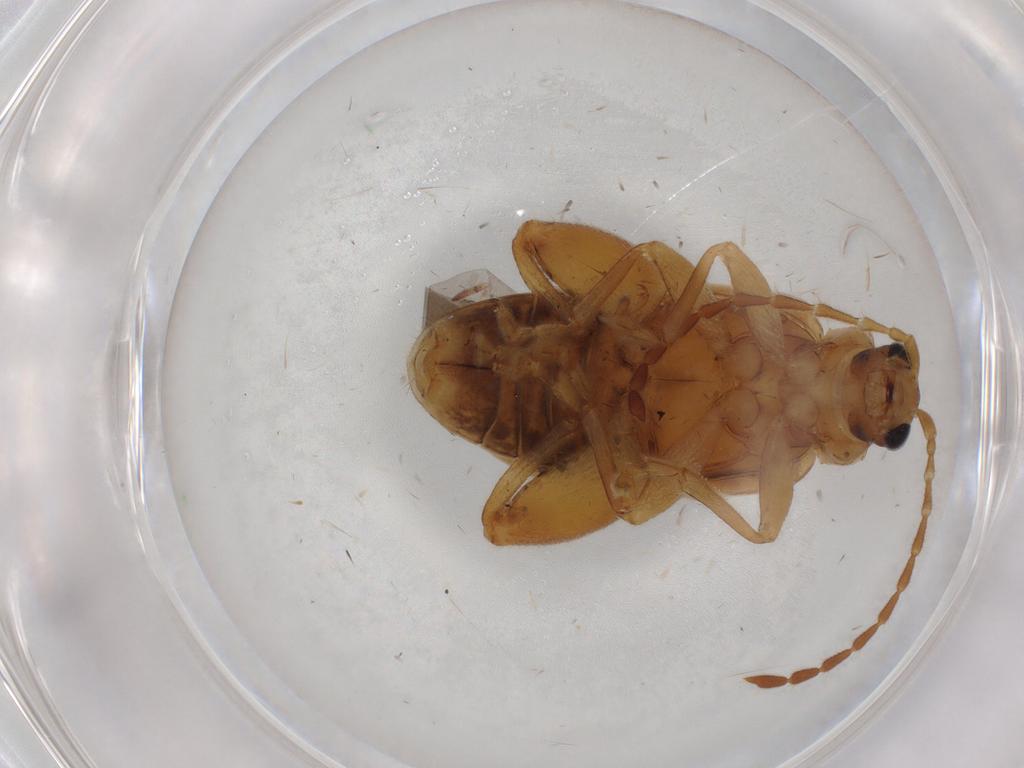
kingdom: Animalia
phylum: Arthropoda
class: Insecta
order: Coleoptera
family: Chrysomelidae
